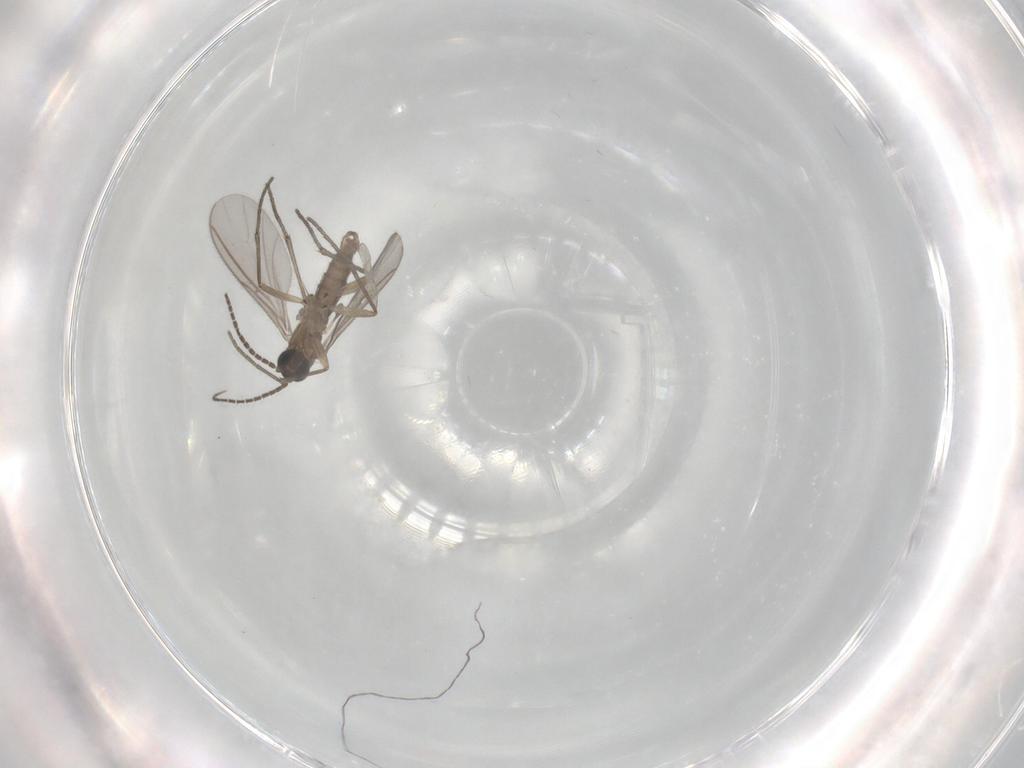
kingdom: Animalia
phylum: Arthropoda
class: Insecta
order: Diptera
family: Sciaridae
